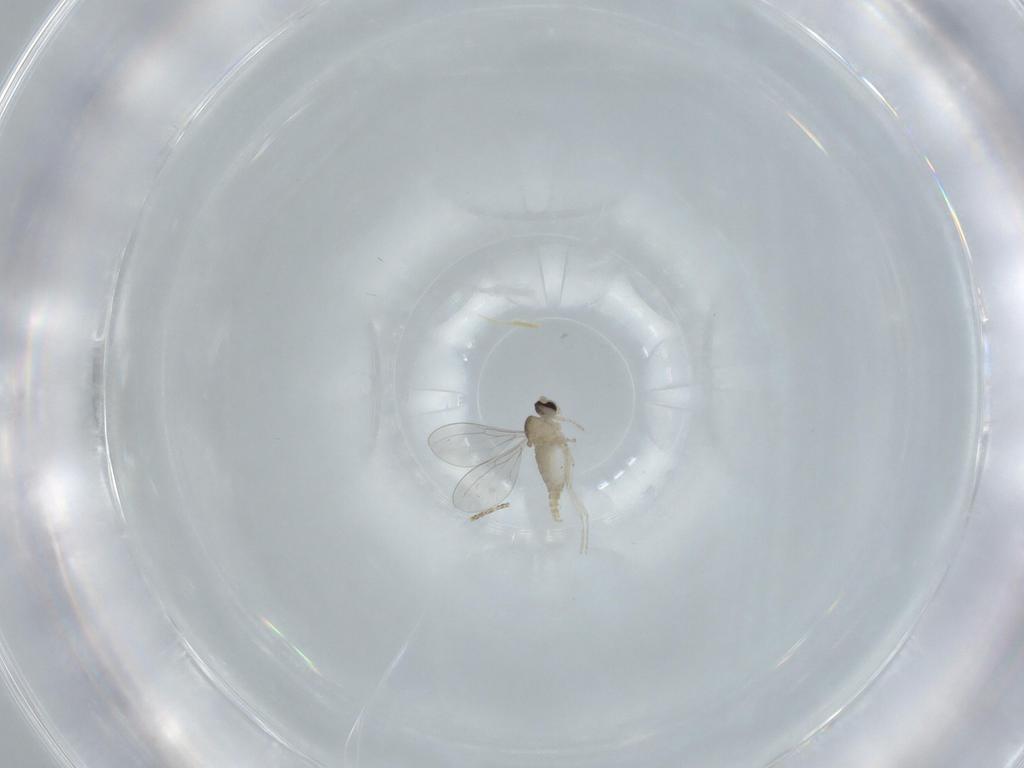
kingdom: Animalia
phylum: Arthropoda
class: Insecta
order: Diptera
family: Cecidomyiidae
